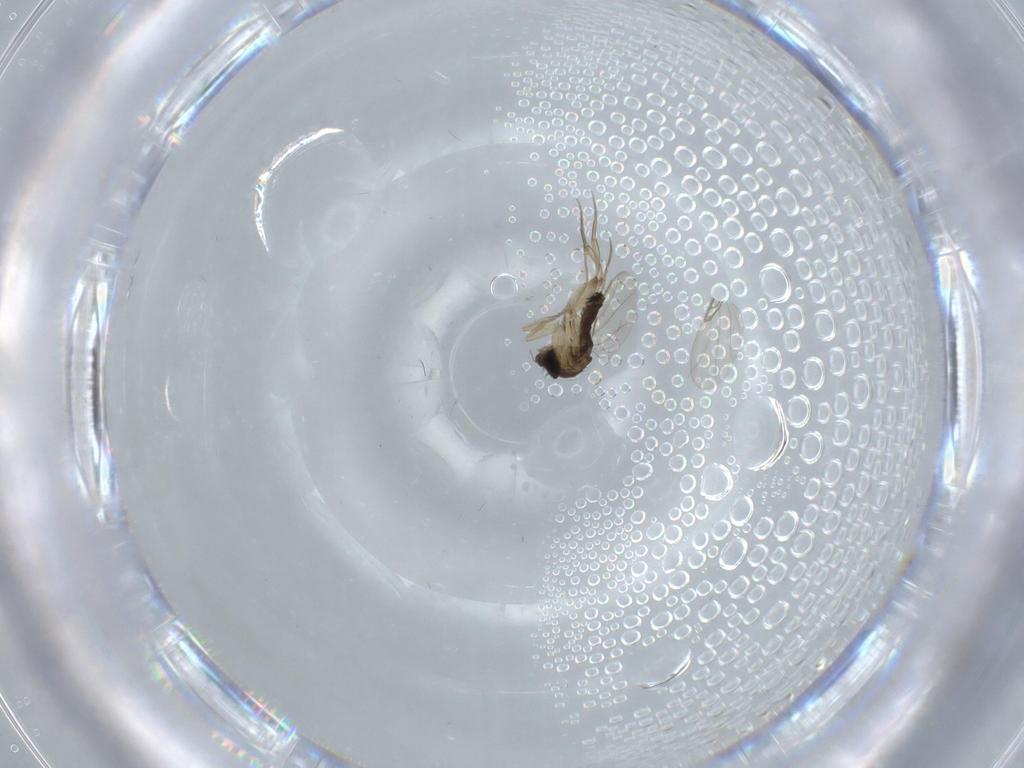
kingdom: Animalia
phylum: Arthropoda
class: Insecta
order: Diptera
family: Phoridae
